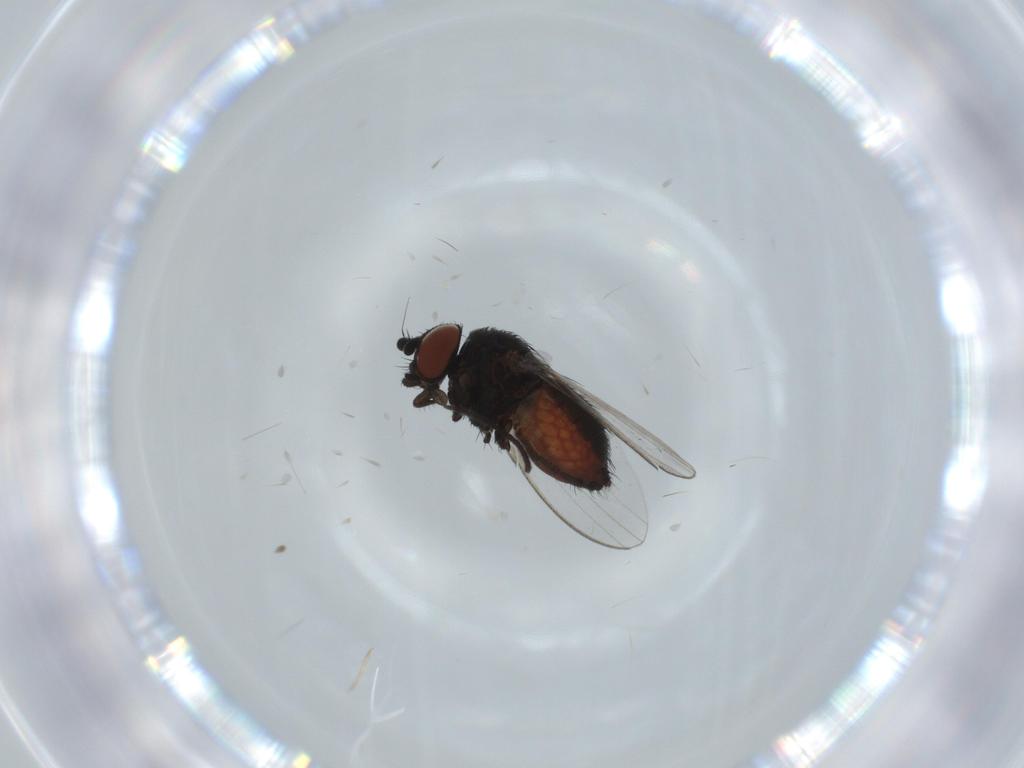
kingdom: Animalia
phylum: Arthropoda
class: Insecta
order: Diptera
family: Milichiidae
